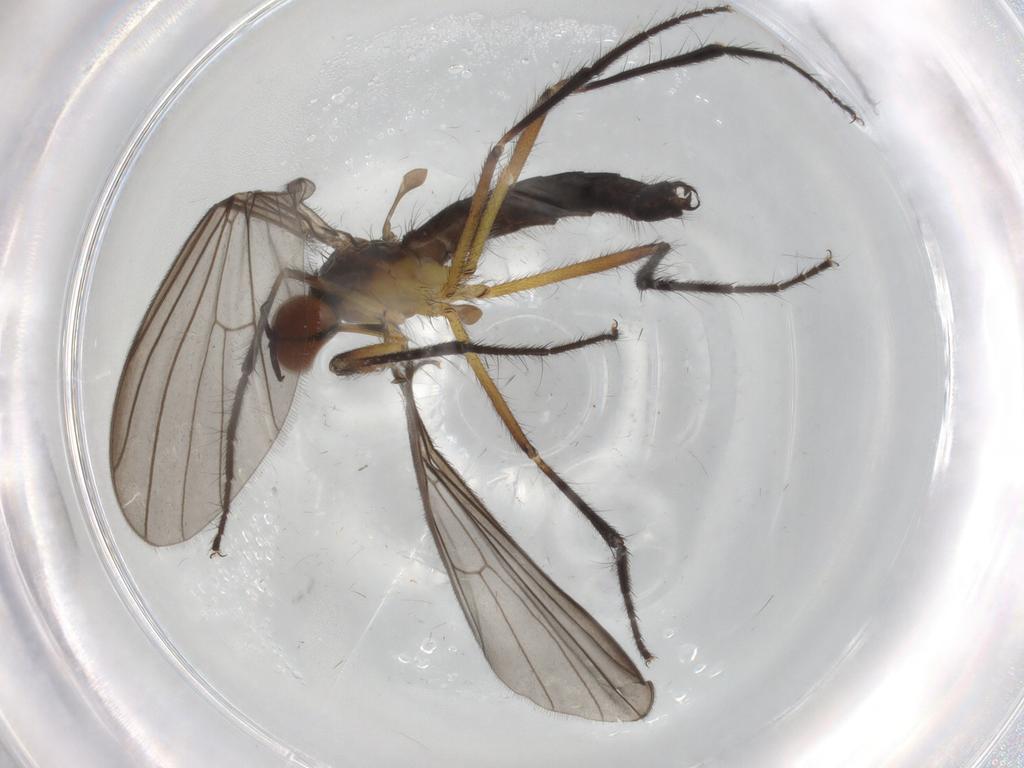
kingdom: Animalia
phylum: Arthropoda
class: Insecta
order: Diptera
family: Empididae
